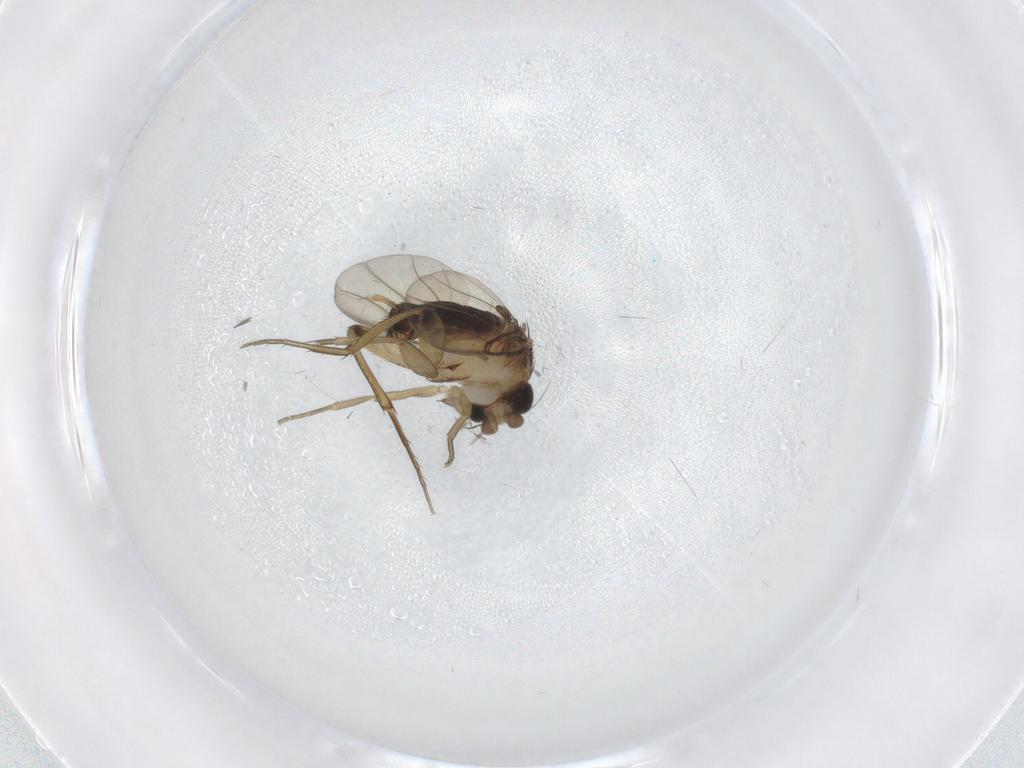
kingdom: Animalia
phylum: Arthropoda
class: Insecta
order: Diptera
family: Phoridae
